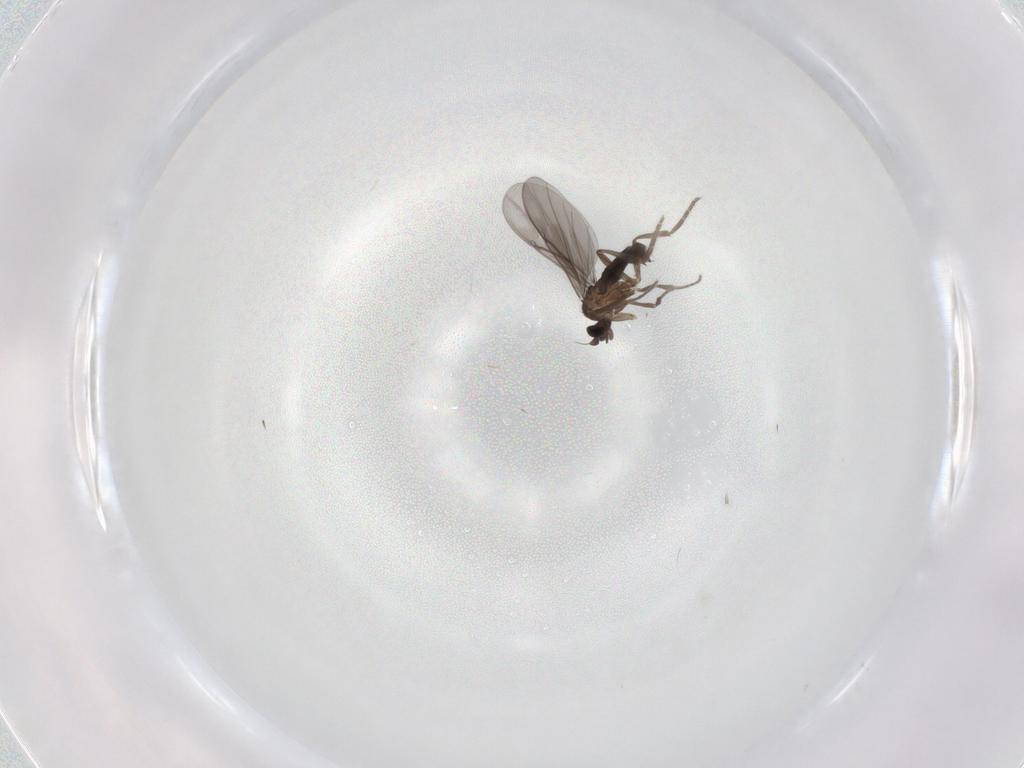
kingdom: Animalia
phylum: Arthropoda
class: Insecta
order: Diptera
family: Phoridae
